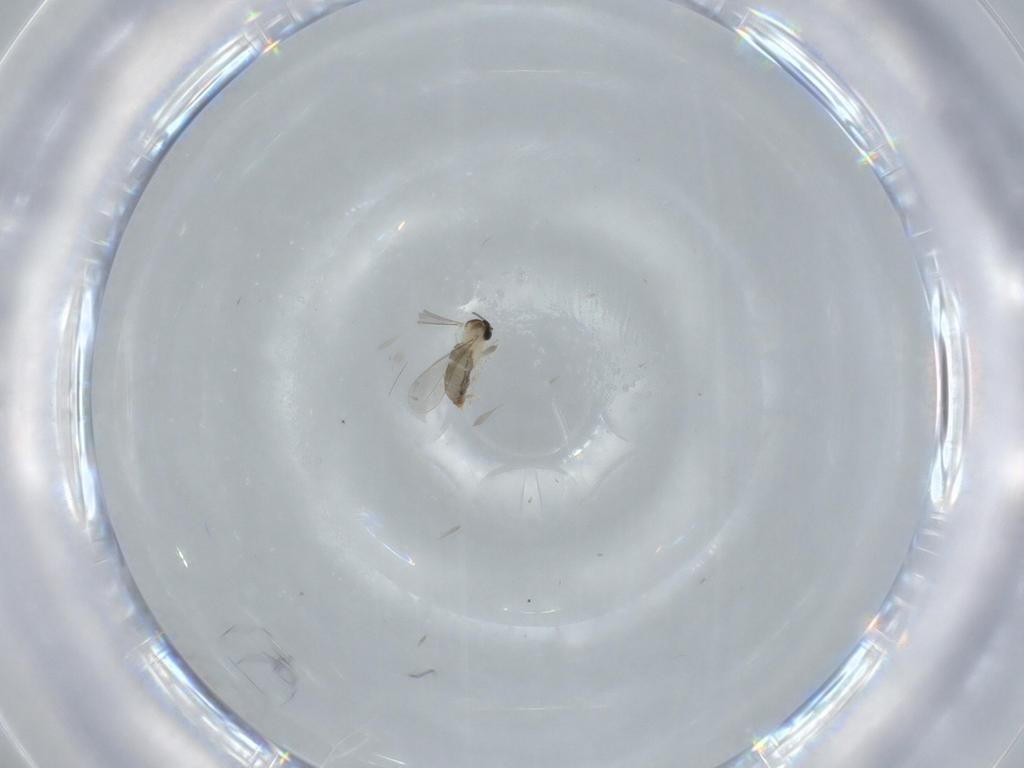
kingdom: Animalia
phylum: Arthropoda
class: Insecta
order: Diptera
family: Cecidomyiidae
